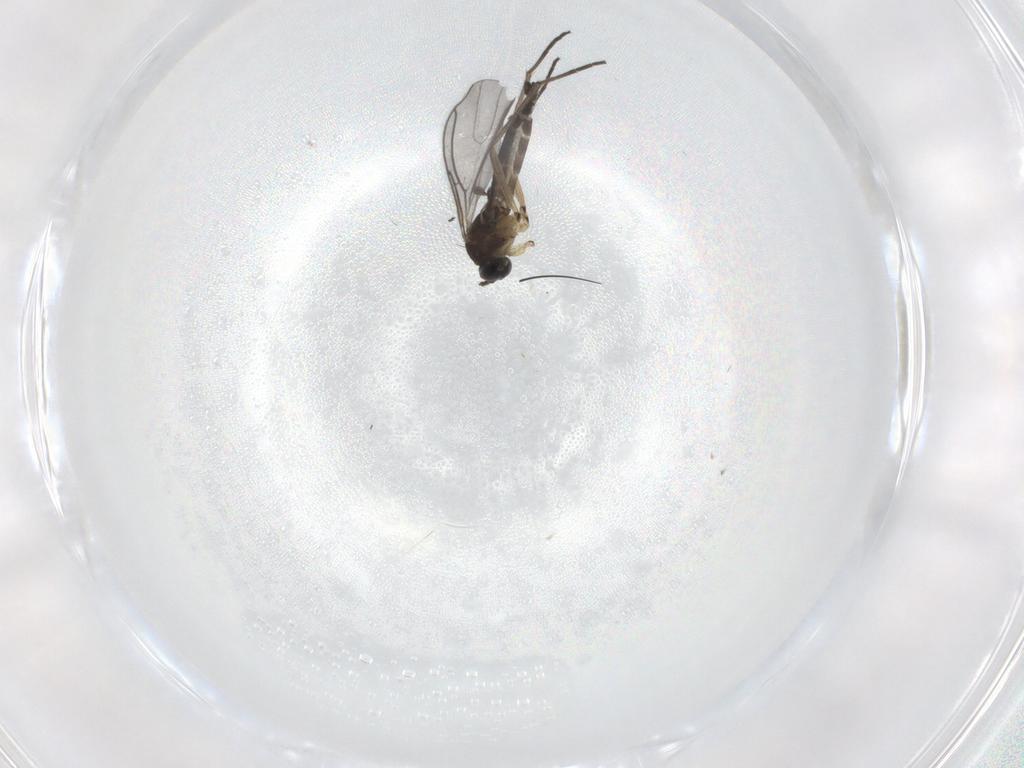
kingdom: Animalia
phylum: Arthropoda
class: Insecta
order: Diptera
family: Sciaridae
